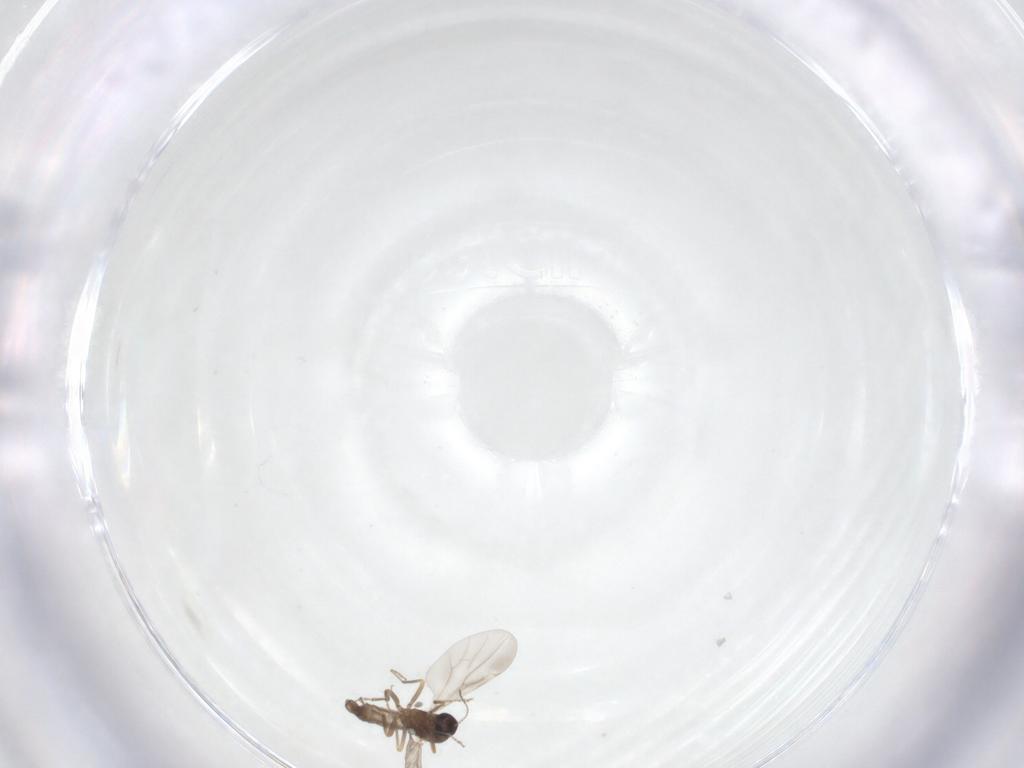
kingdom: Animalia
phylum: Arthropoda
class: Insecta
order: Diptera
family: Ceratopogonidae
